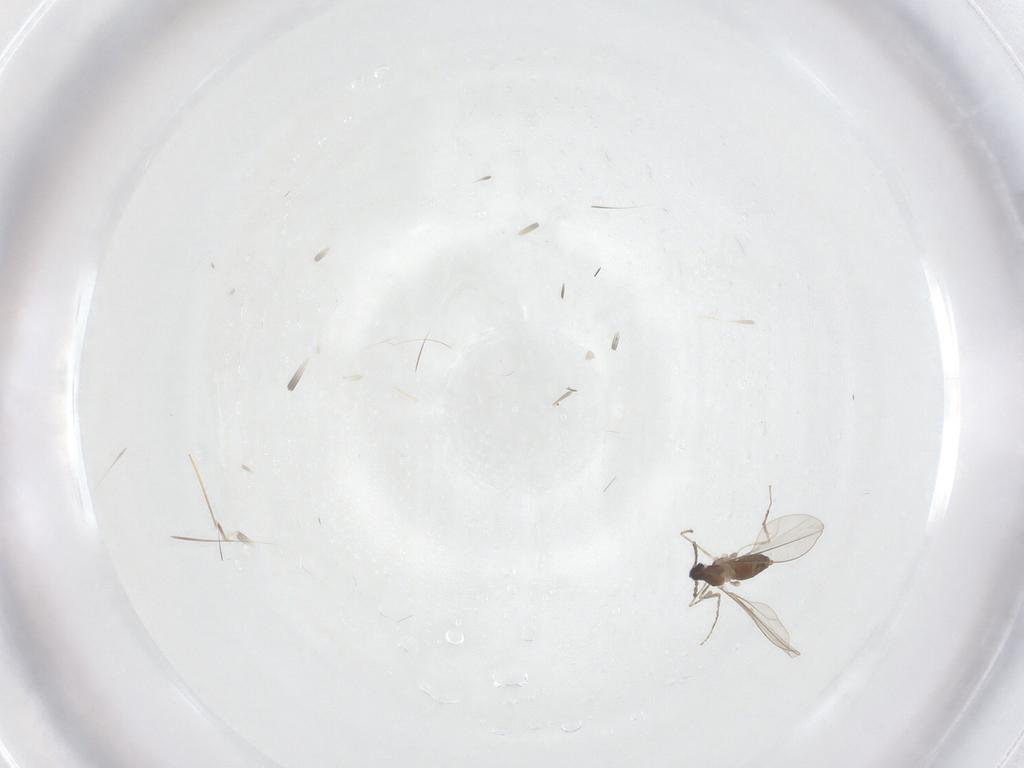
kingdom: Animalia
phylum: Arthropoda
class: Insecta
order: Diptera
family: Cecidomyiidae
